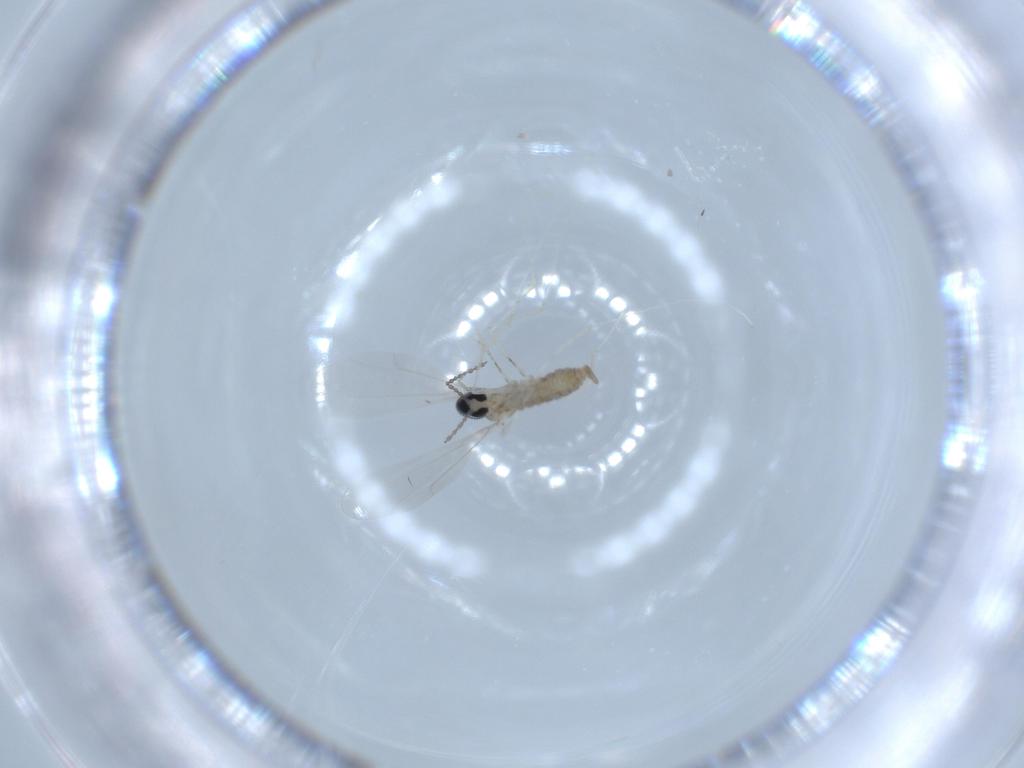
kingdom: Animalia
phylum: Arthropoda
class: Insecta
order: Diptera
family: Cecidomyiidae
